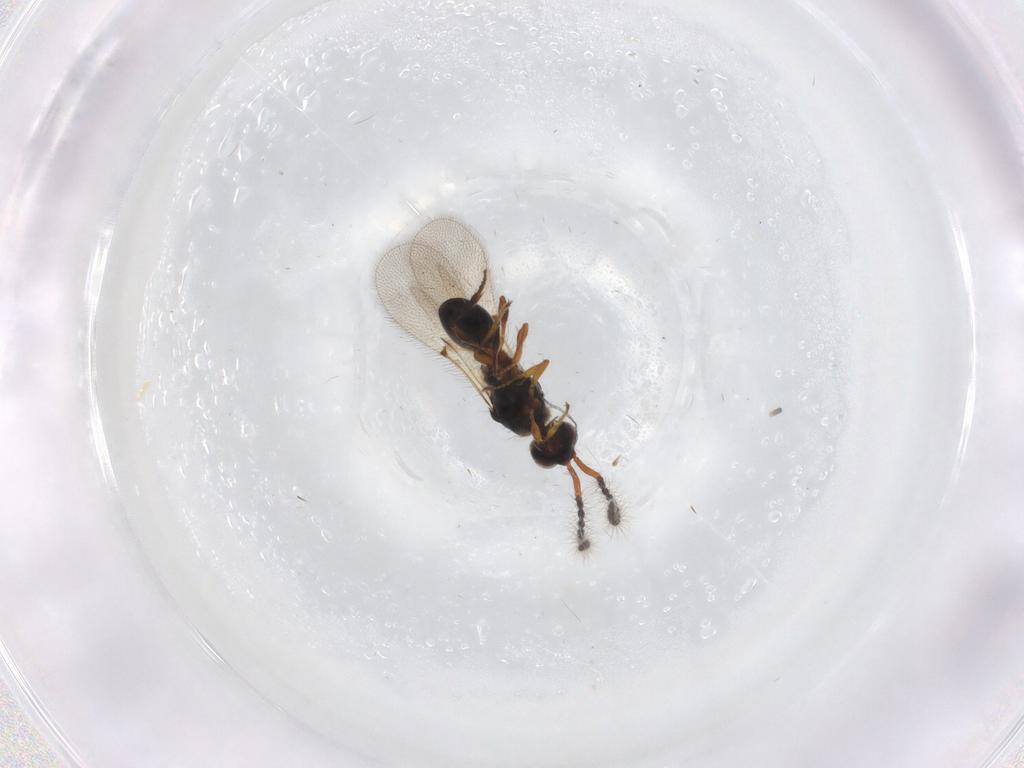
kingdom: Animalia
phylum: Arthropoda
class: Insecta
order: Hymenoptera
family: Diapriidae
